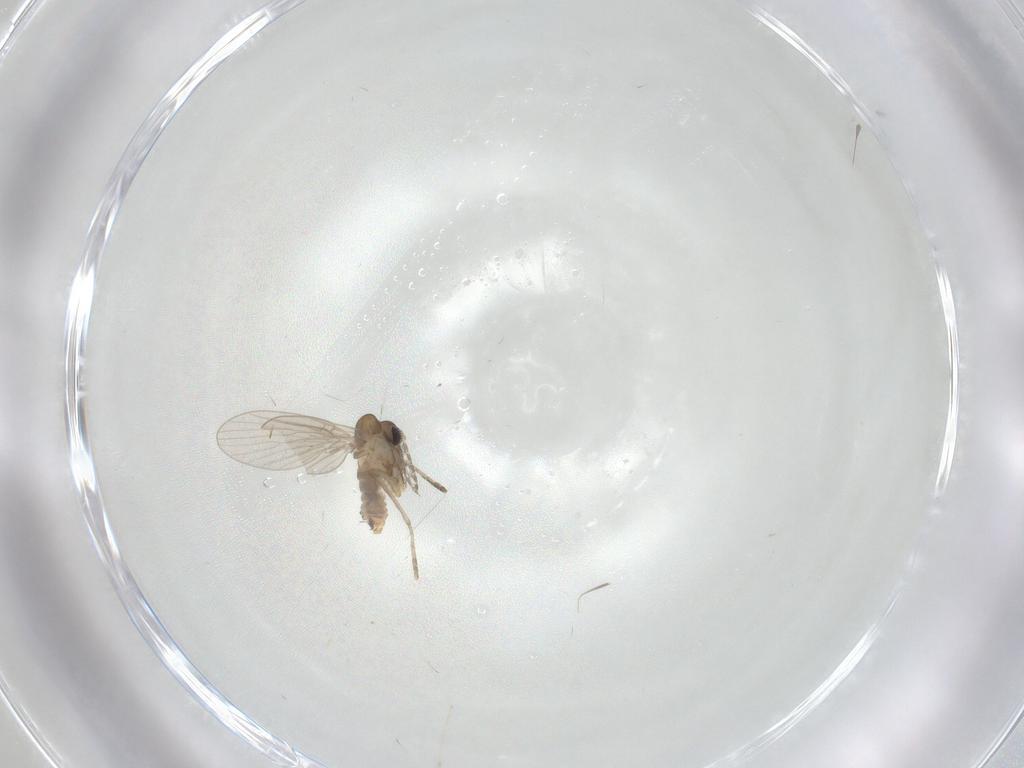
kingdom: Animalia
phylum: Arthropoda
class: Insecta
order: Diptera
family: Psychodidae
